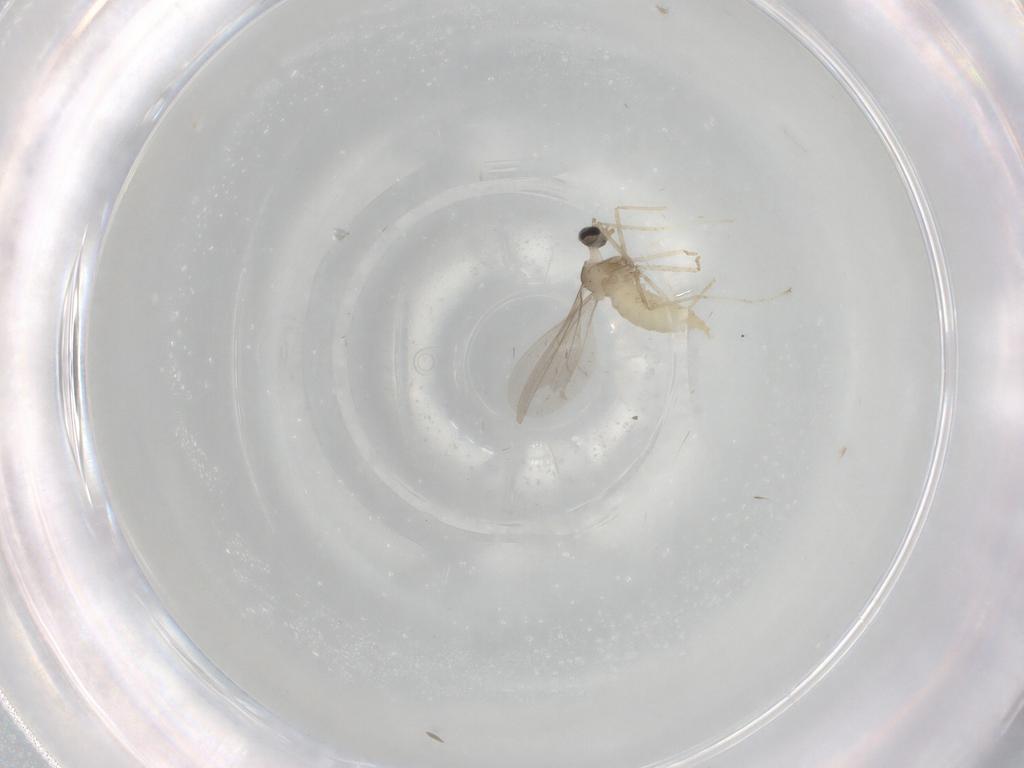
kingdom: Animalia
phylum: Arthropoda
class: Insecta
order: Diptera
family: Cecidomyiidae
